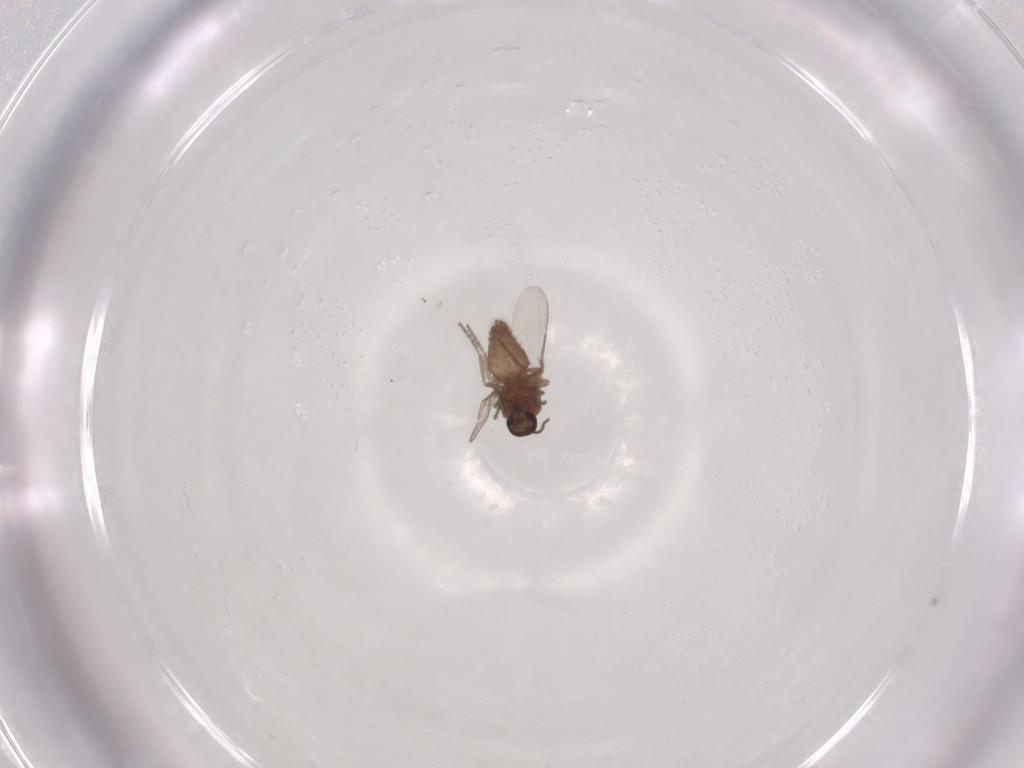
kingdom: Animalia
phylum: Arthropoda
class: Insecta
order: Diptera
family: Ceratopogonidae
